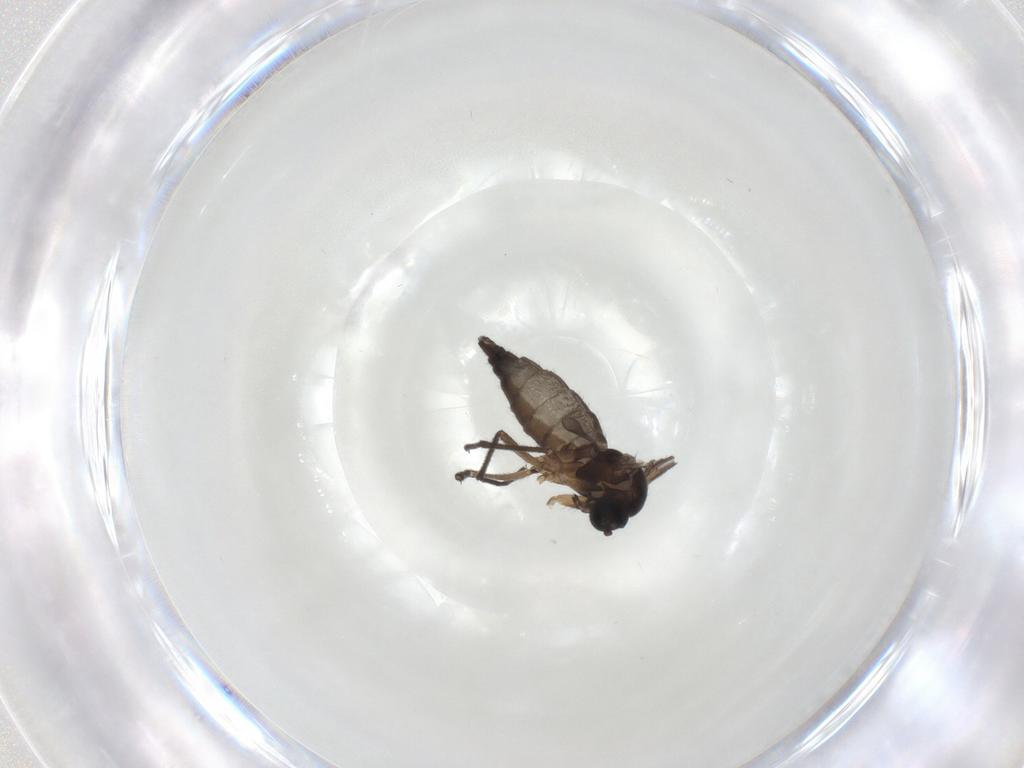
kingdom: Animalia
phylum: Arthropoda
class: Insecta
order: Diptera
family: Sciaridae
